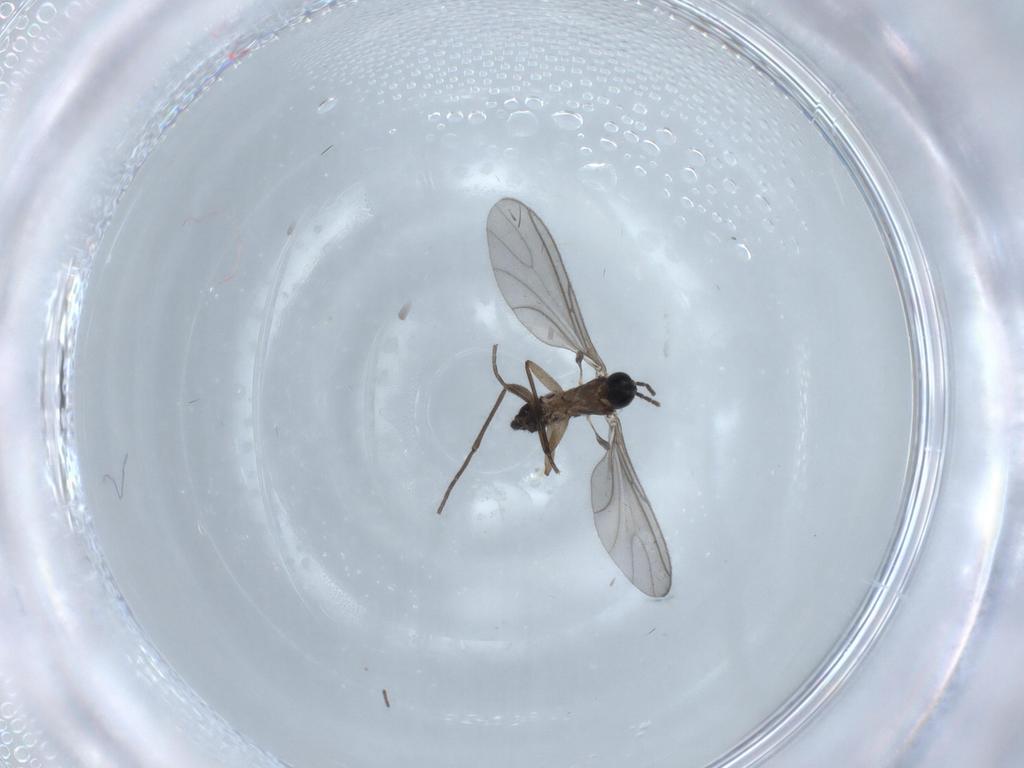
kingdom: Animalia
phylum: Arthropoda
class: Insecta
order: Diptera
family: Sciaridae
